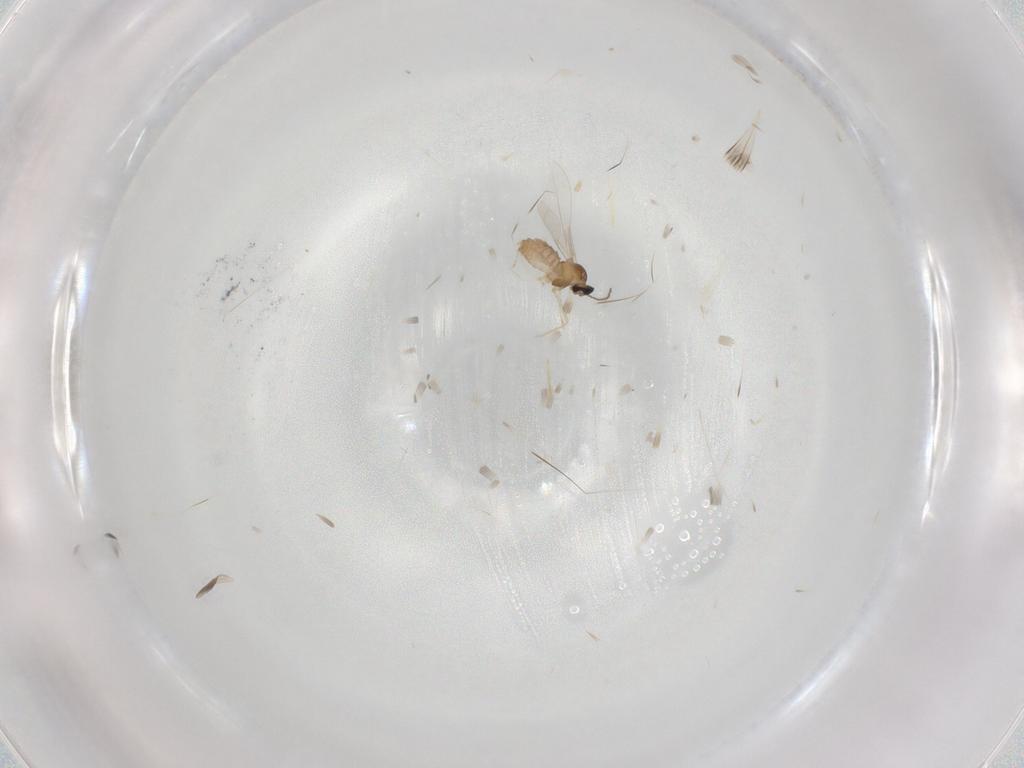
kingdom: Animalia
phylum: Arthropoda
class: Insecta
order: Diptera
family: Cecidomyiidae
